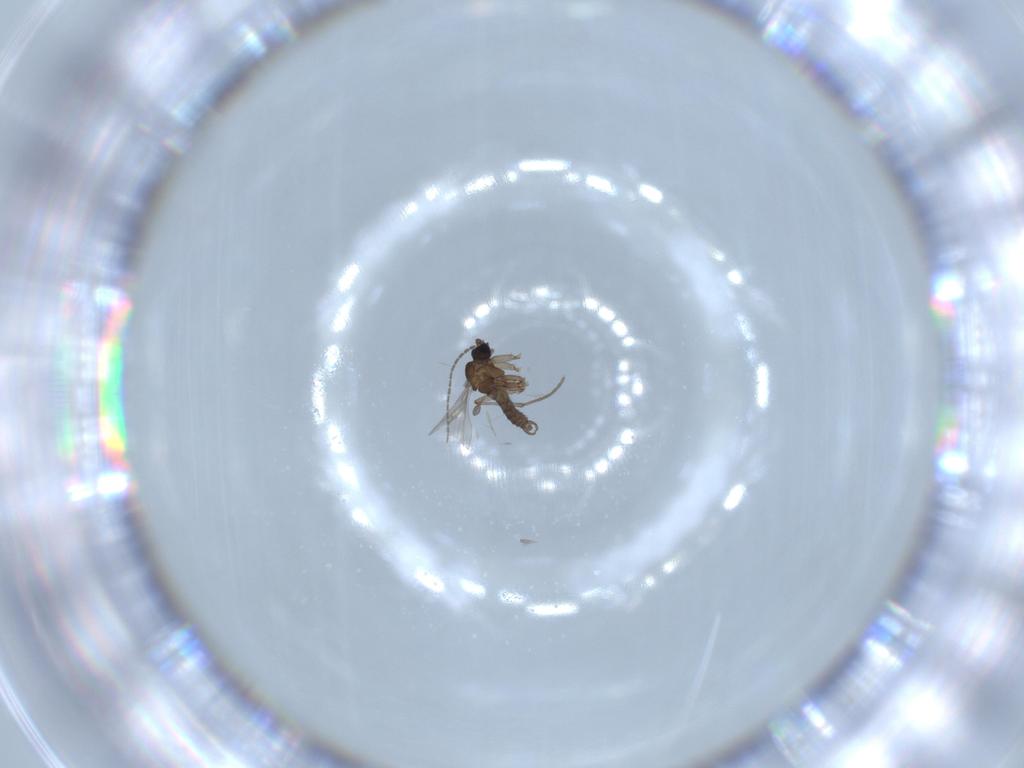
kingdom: Animalia
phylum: Arthropoda
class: Insecta
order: Diptera
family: Sciaridae
